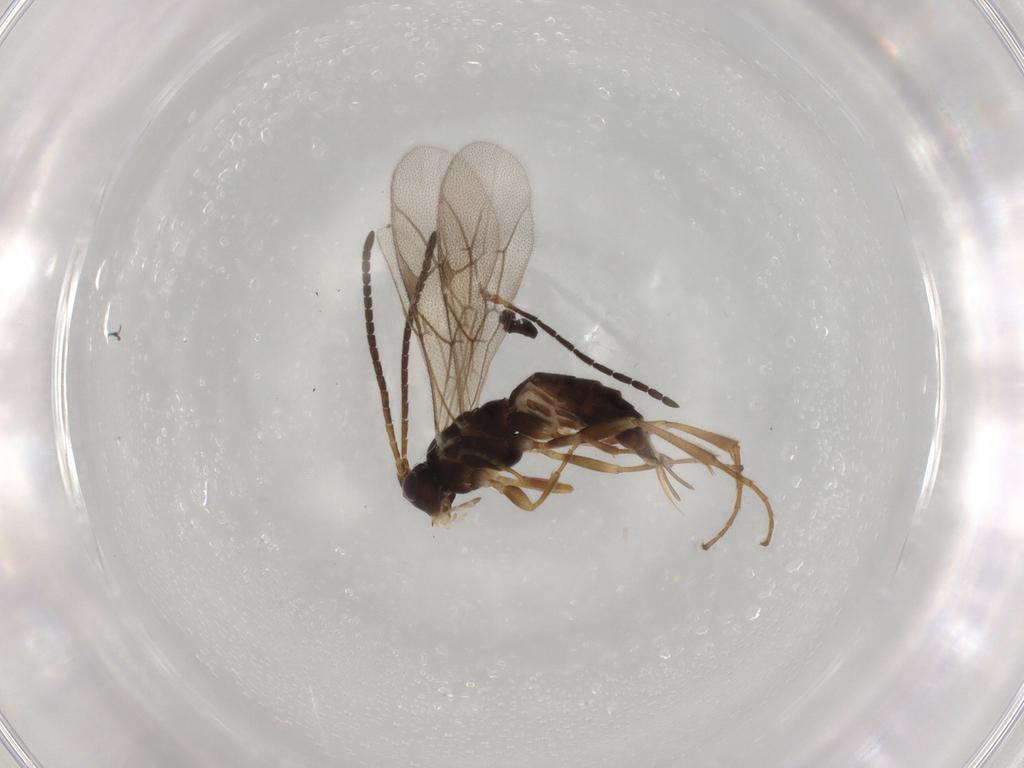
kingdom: Animalia
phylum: Arthropoda
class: Insecta
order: Hymenoptera
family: Ichneumonidae
